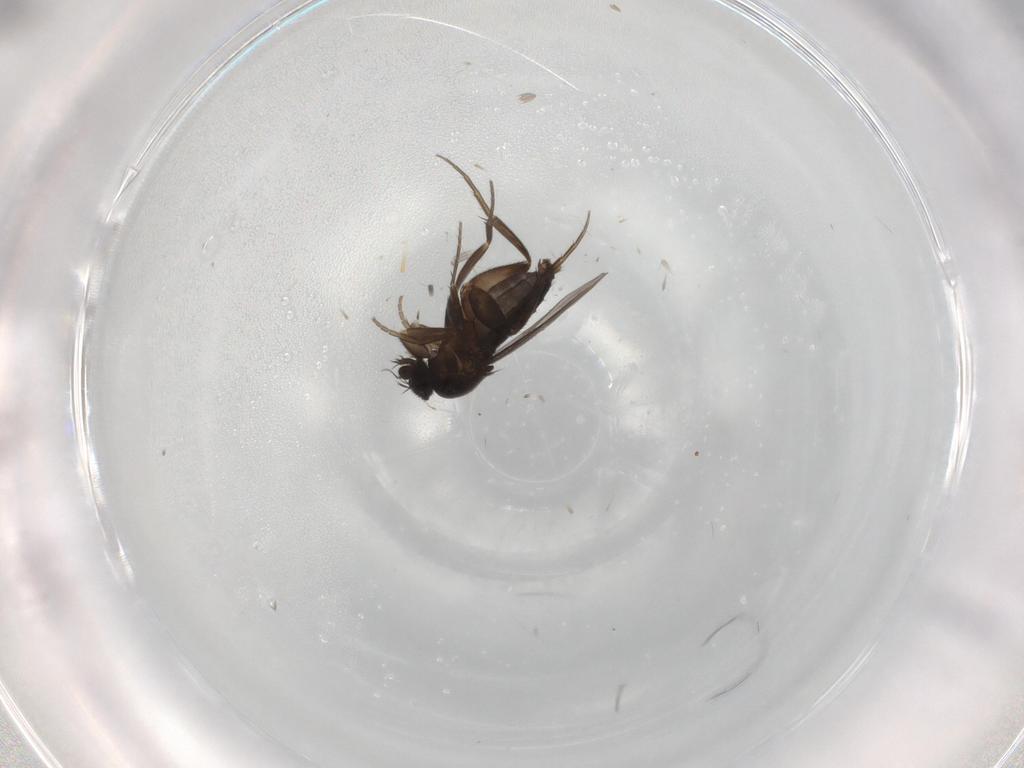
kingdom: Animalia
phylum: Arthropoda
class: Insecta
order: Diptera
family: Phoridae
